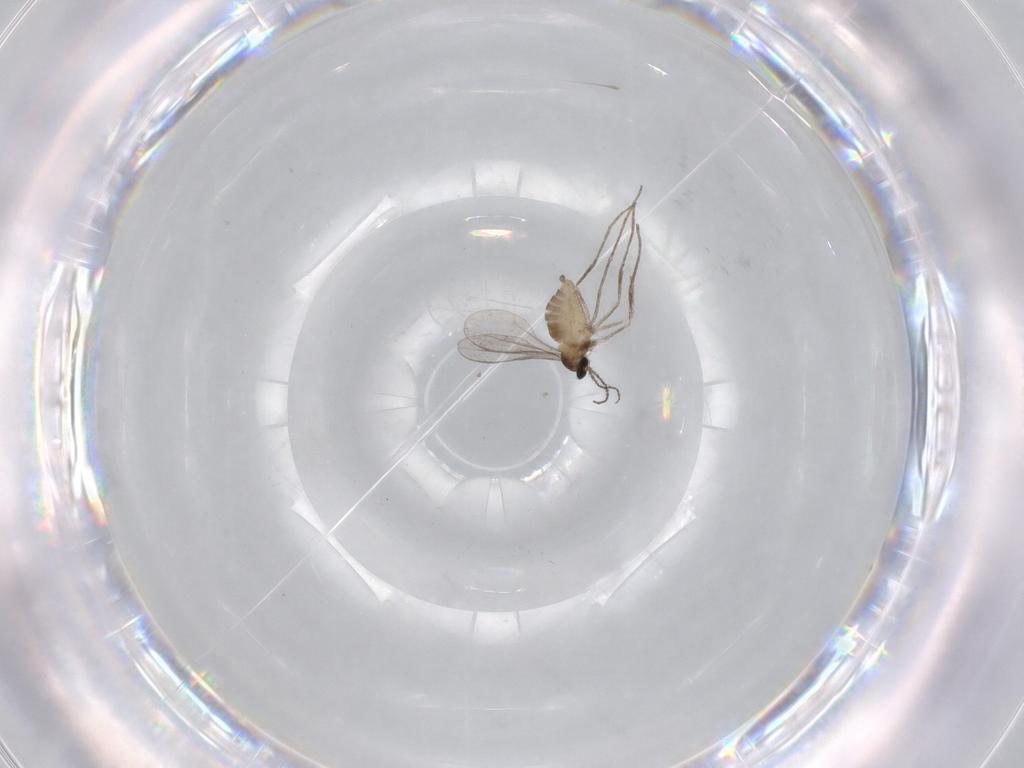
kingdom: Animalia
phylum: Arthropoda
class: Insecta
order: Diptera
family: Cecidomyiidae
